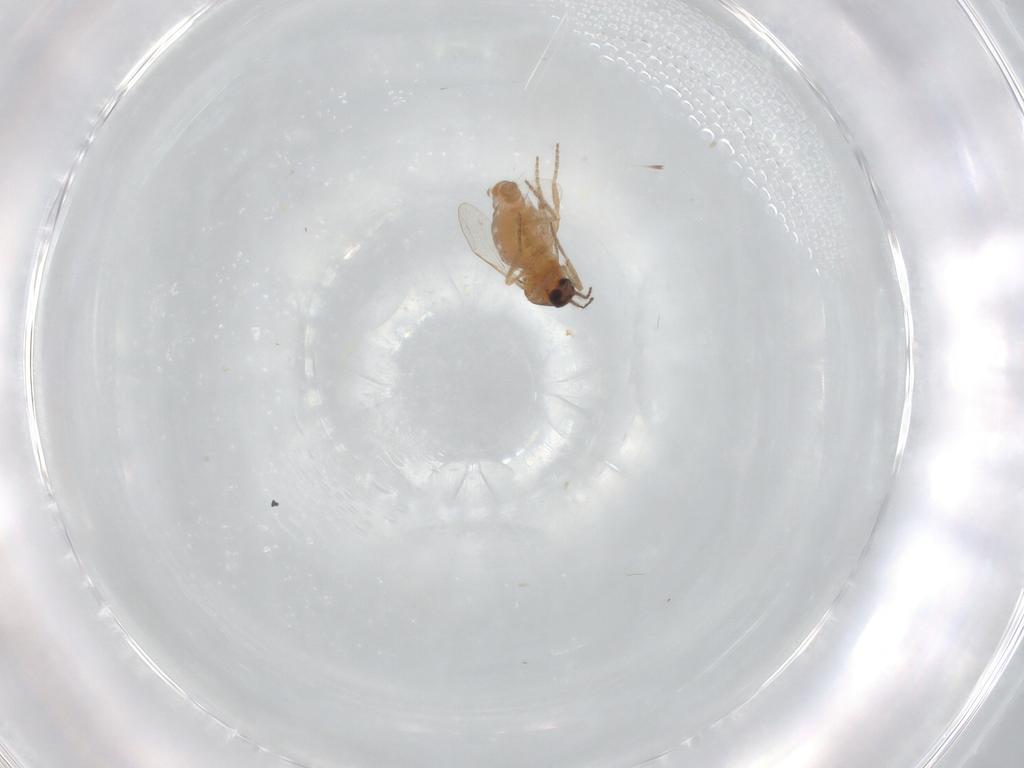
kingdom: Animalia
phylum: Arthropoda
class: Insecta
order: Diptera
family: Ceratopogonidae
